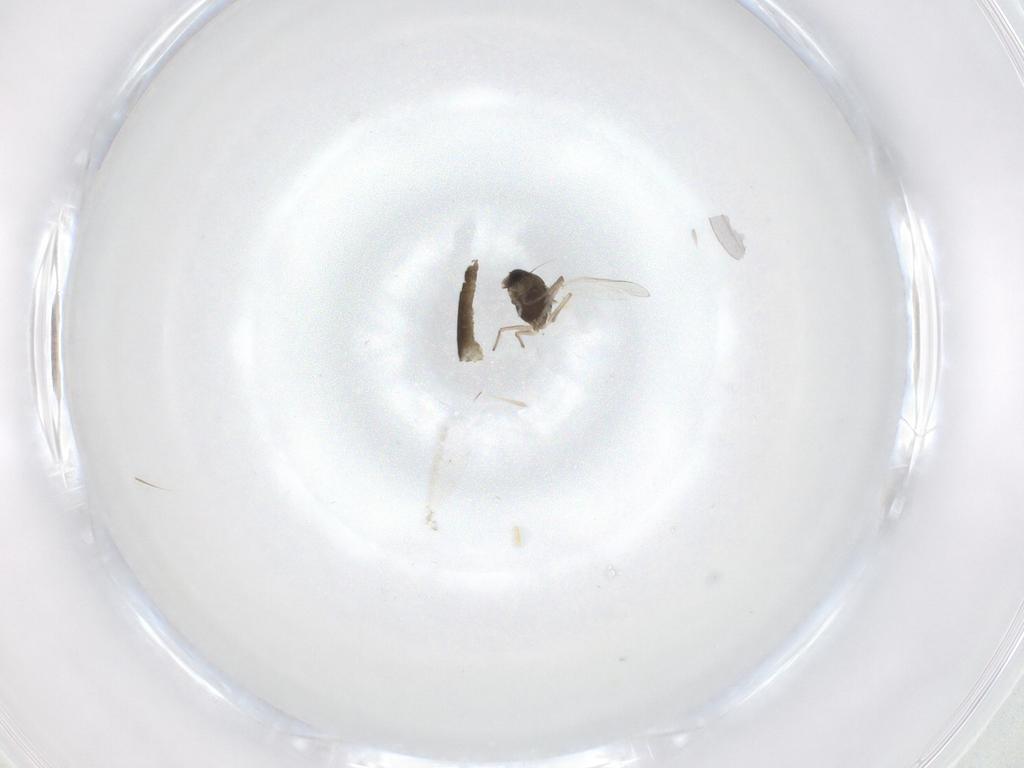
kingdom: Animalia
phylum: Arthropoda
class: Insecta
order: Diptera
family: Chironomidae
